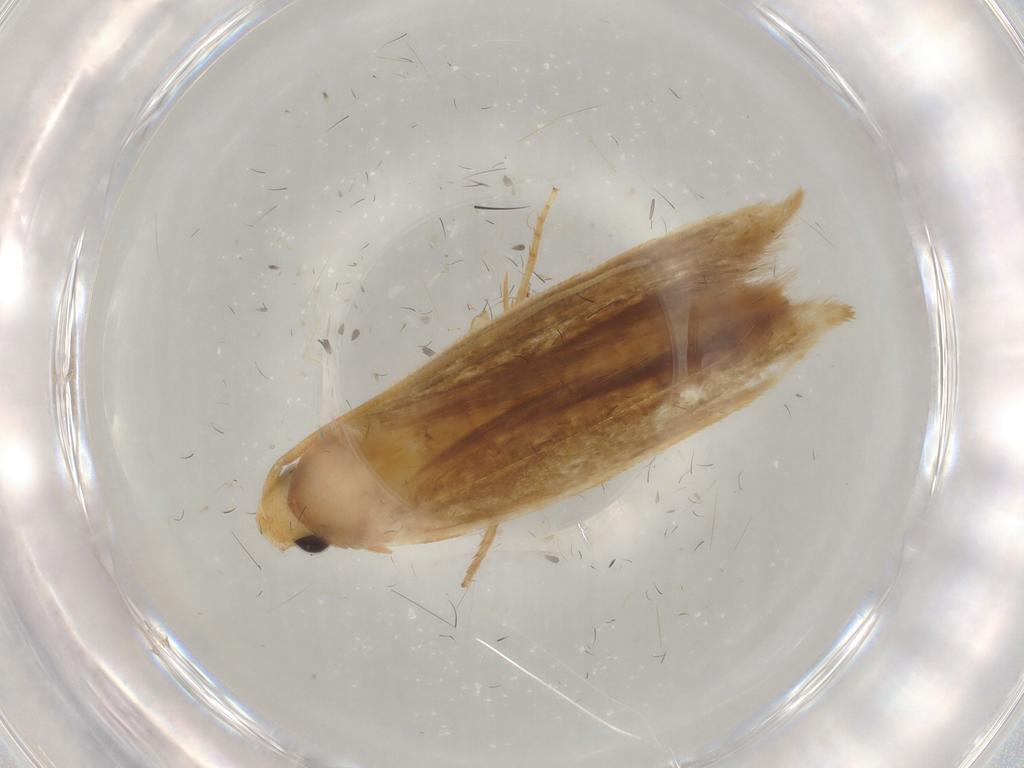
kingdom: Animalia
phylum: Arthropoda
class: Insecta
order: Lepidoptera
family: Tineidae
